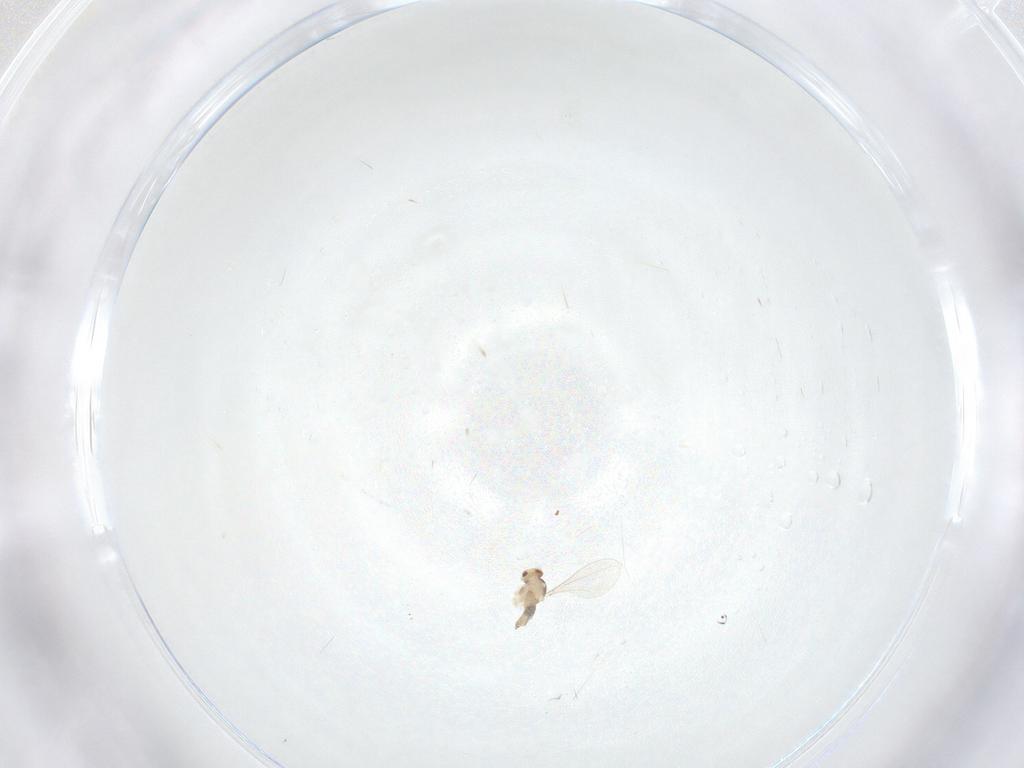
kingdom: Animalia
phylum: Arthropoda
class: Insecta
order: Diptera
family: Cecidomyiidae
